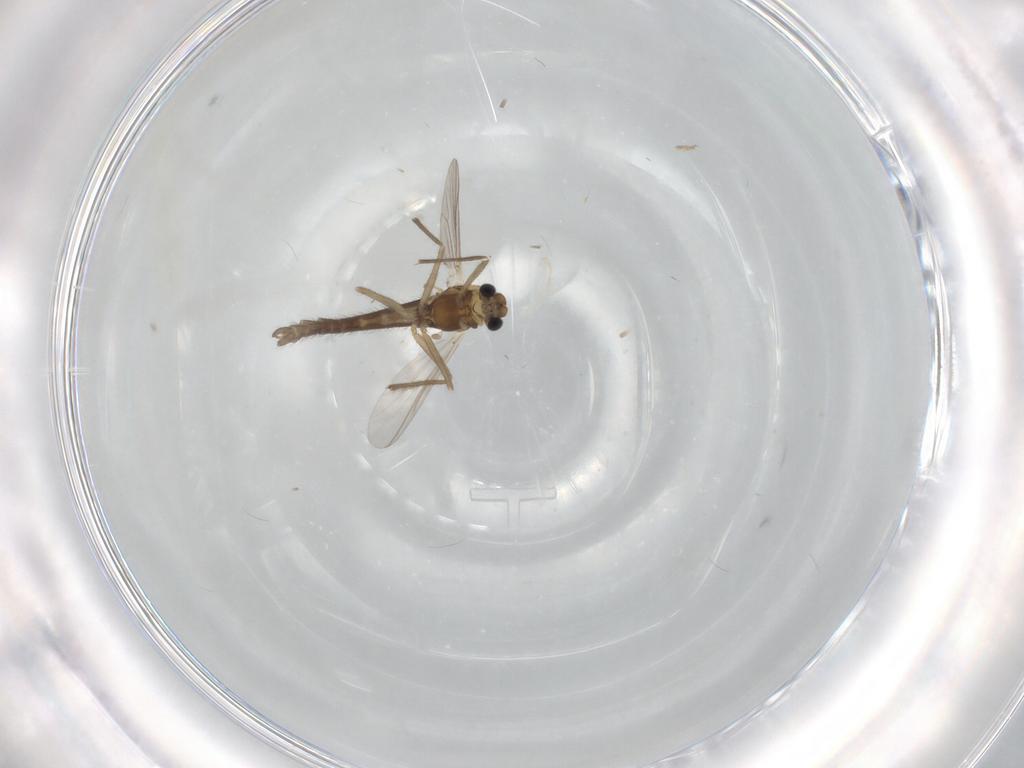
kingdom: Animalia
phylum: Arthropoda
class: Insecta
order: Diptera
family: Chironomidae
